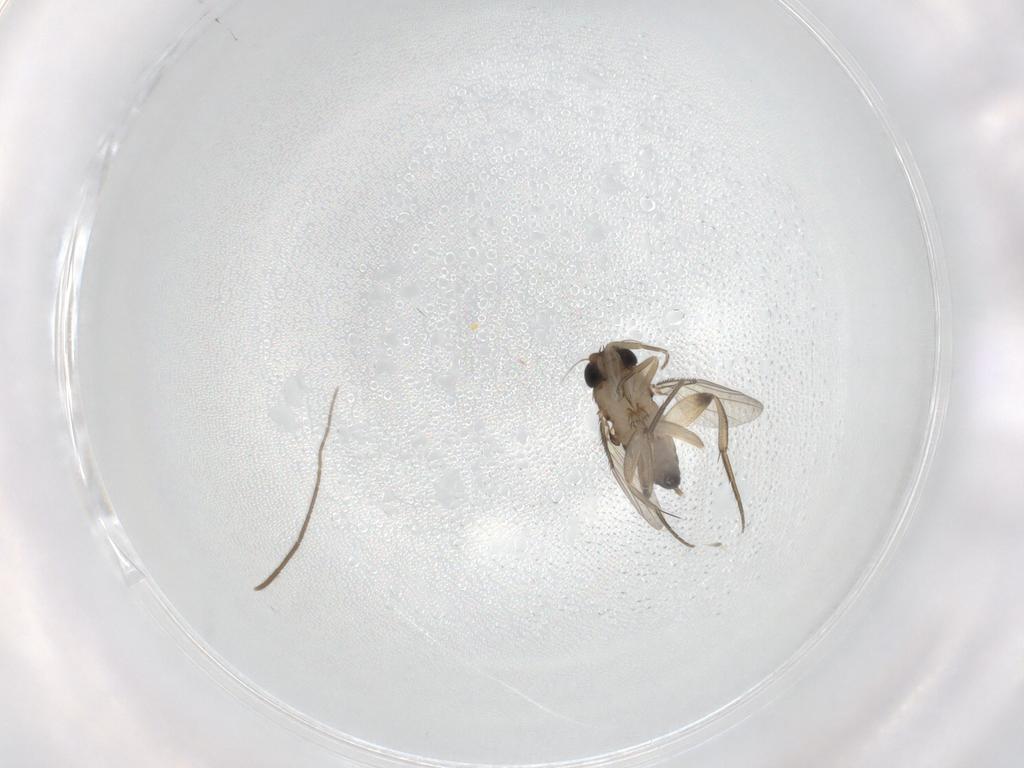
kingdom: Animalia
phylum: Arthropoda
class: Insecta
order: Diptera
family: Phoridae
